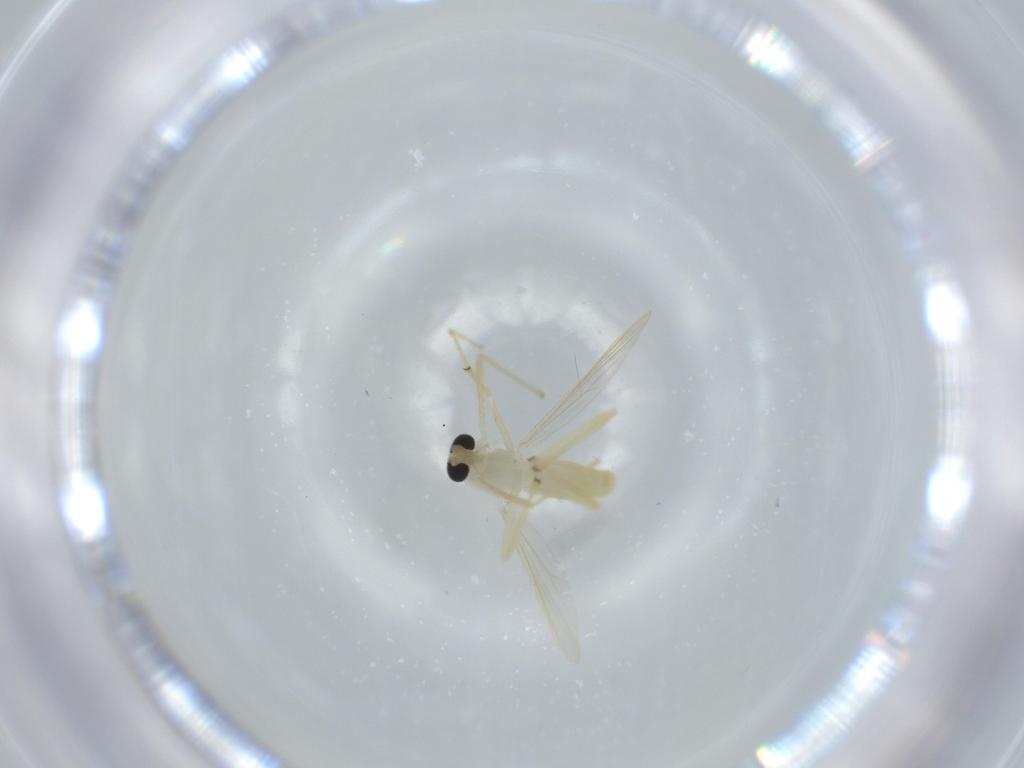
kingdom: Animalia
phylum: Arthropoda
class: Insecta
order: Diptera
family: Chironomidae
